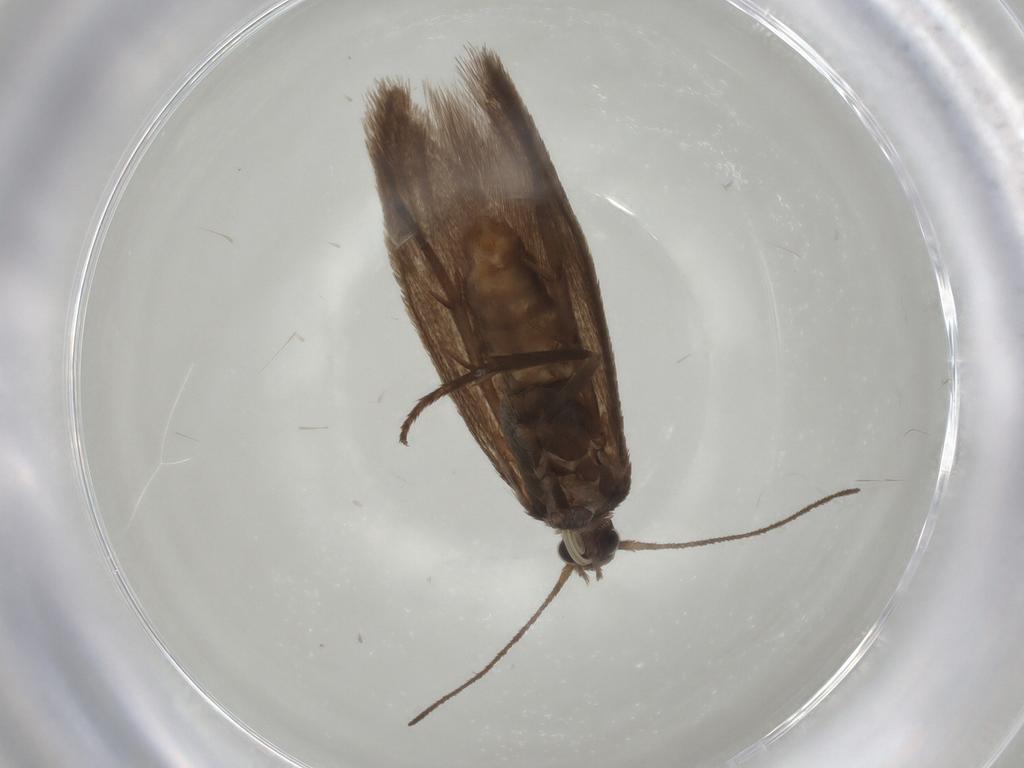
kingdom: Animalia
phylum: Arthropoda
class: Insecta
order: Lepidoptera
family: Limacodidae
